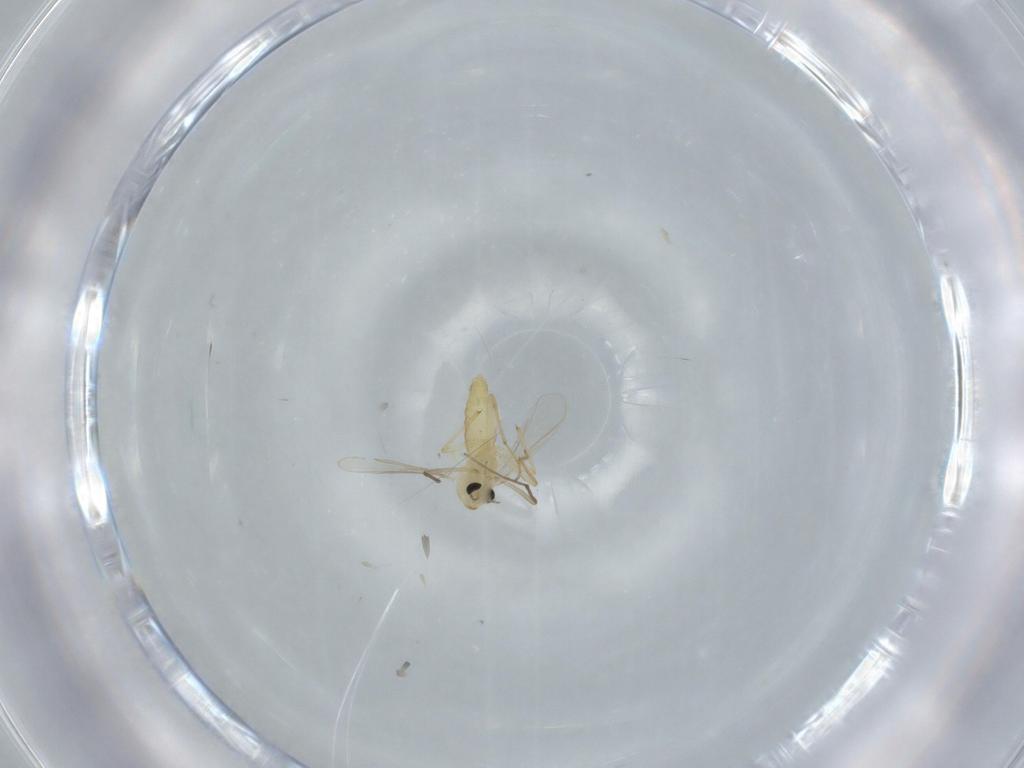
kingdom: Animalia
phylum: Arthropoda
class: Insecta
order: Diptera
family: Chironomidae
